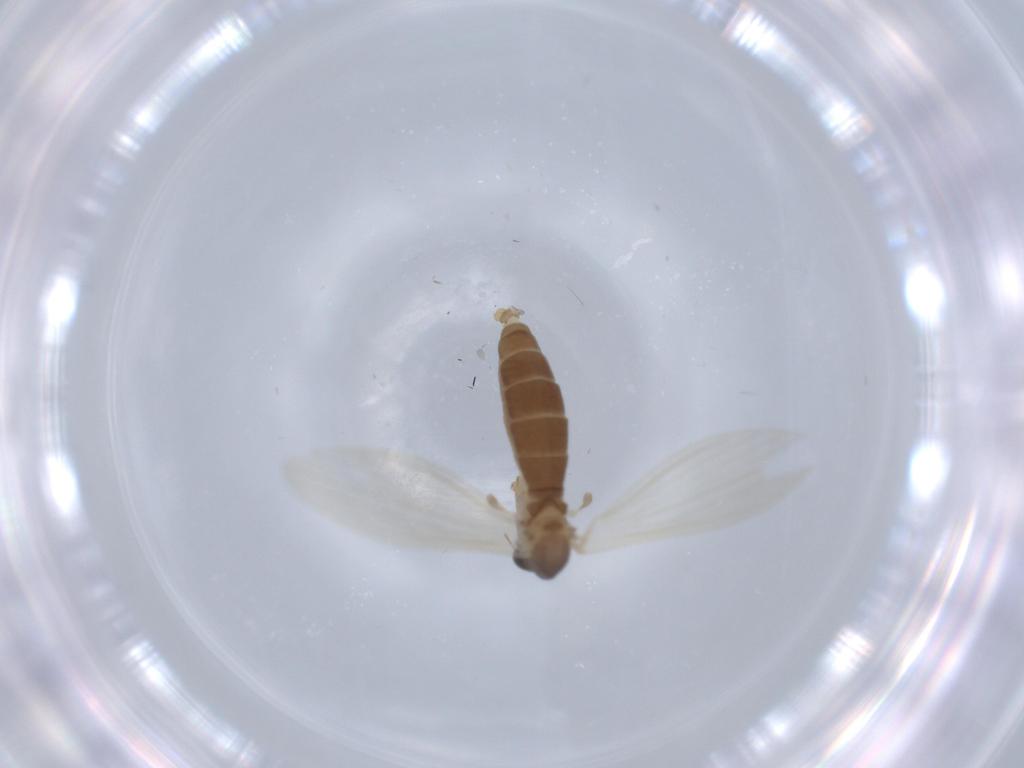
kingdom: Animalia
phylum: Arthropoda
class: Insecta
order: Diptera
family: Psychodidae
